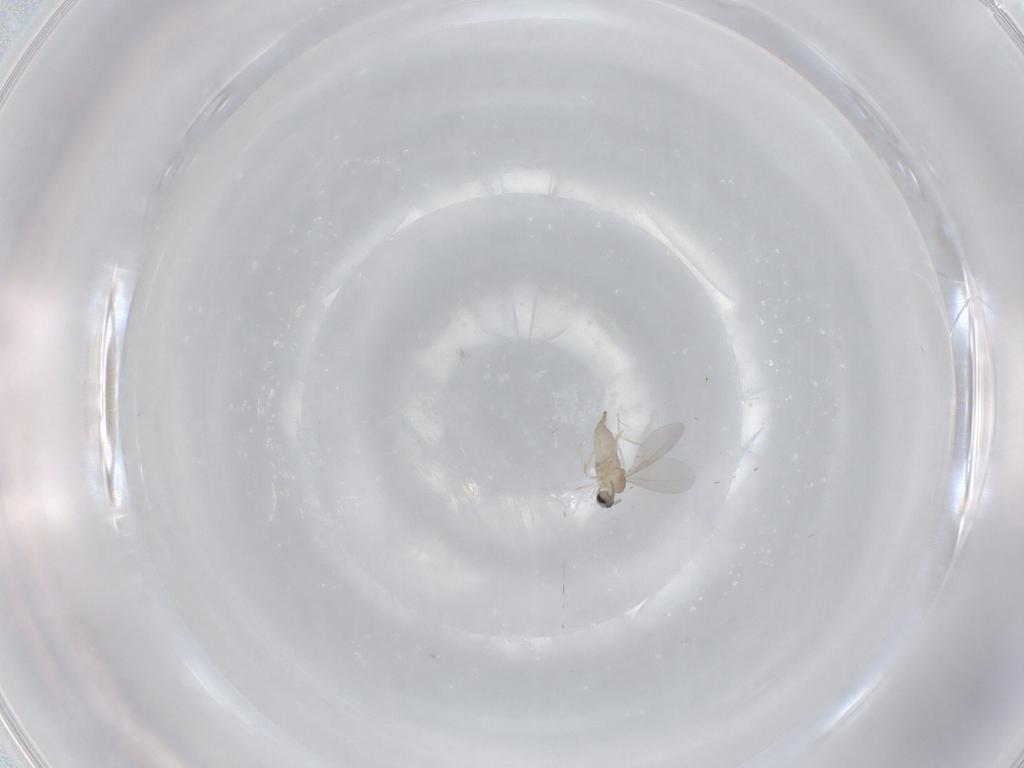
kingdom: Animalia
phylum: Arthropoda
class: Insecta
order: Diptera
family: Cecidomyiidae
